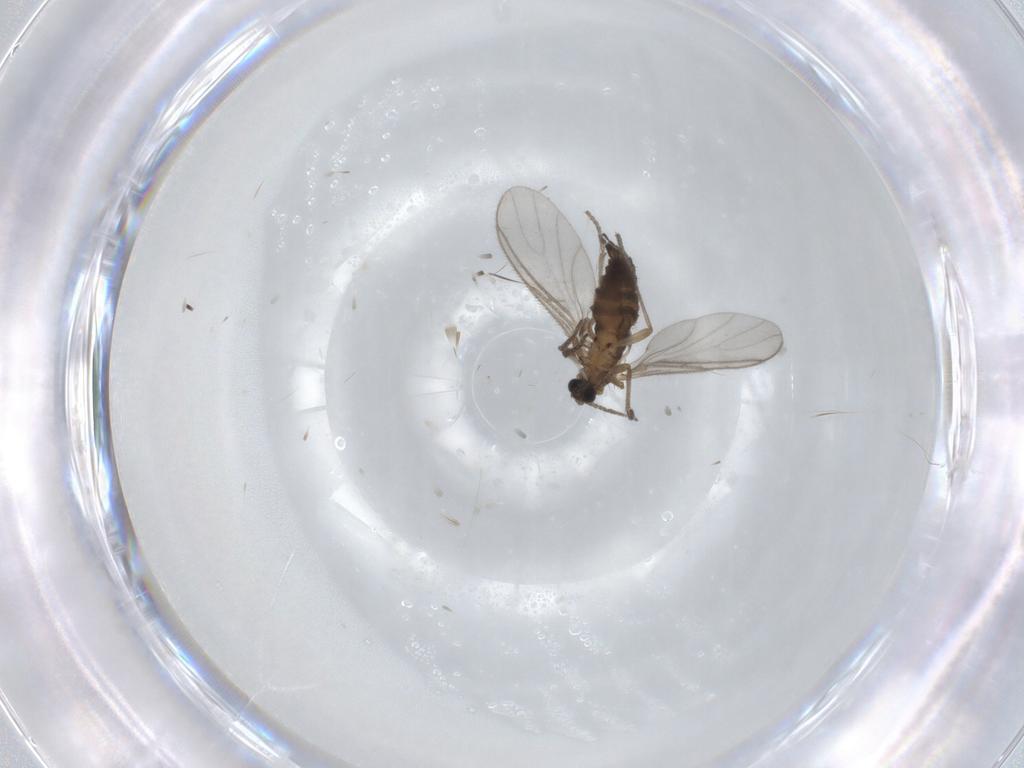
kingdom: Animalia
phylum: Arthropoda
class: Insecta
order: Diptera
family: Sciaridae
